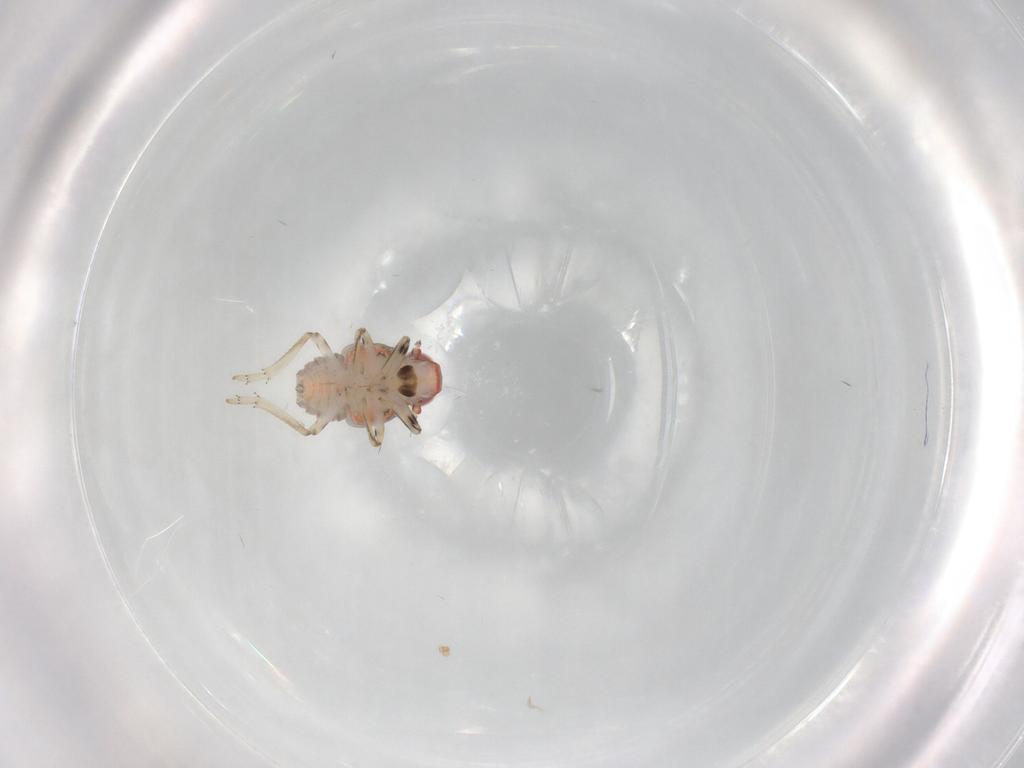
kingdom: Animalia
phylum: Arthropoda
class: Insecta
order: Hemiptera
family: Issidae
